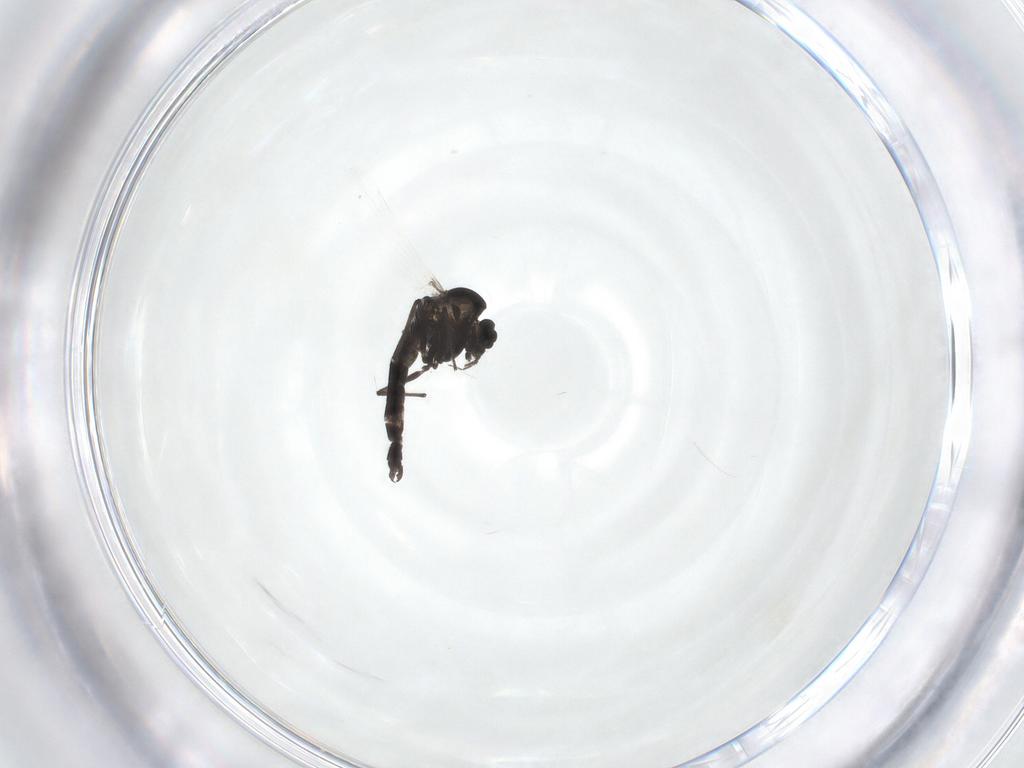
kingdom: Animalia
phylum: Arthropoda
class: Insecta
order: Diptera
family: Chironomidae
